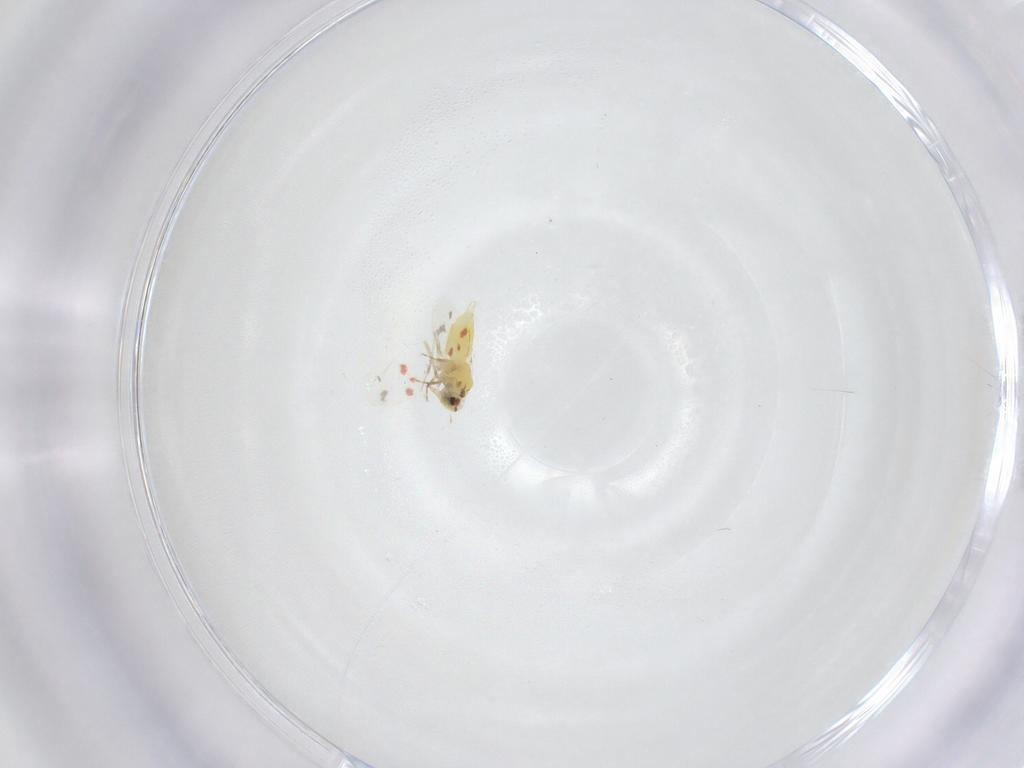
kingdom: Animalia
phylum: Arthropoda
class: Insecta
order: Hemiptera
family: Aleyrodidae
